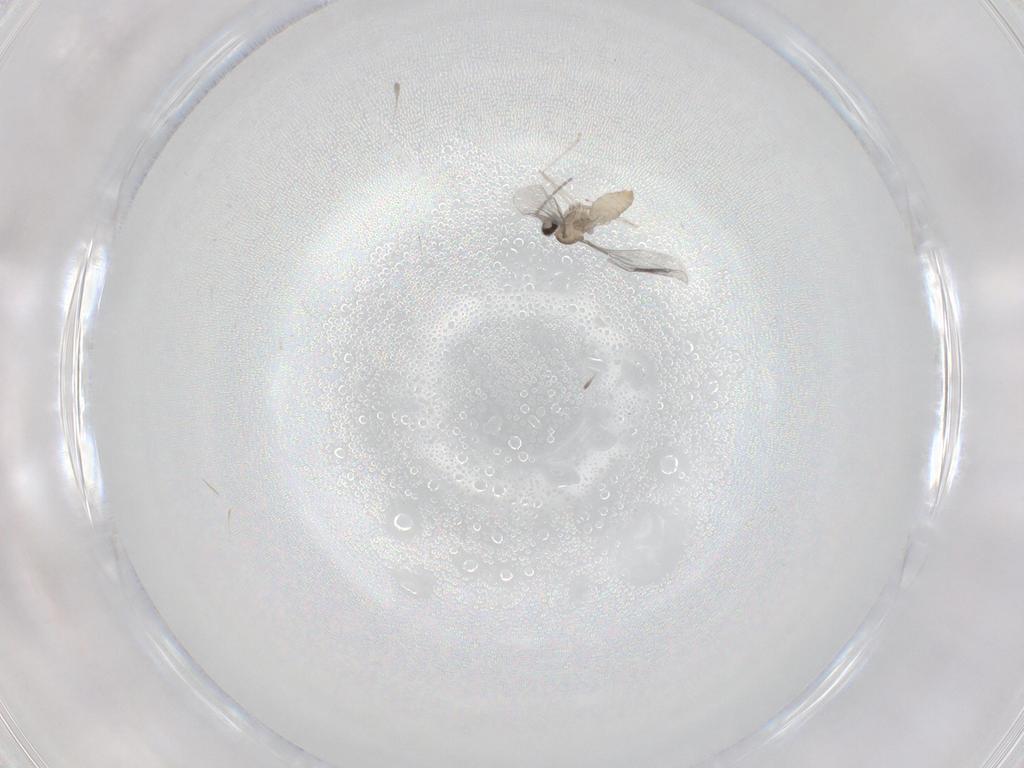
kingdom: Animalia
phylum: Arthropoda
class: Insecta
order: Diptera
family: Cecidomyiidae
